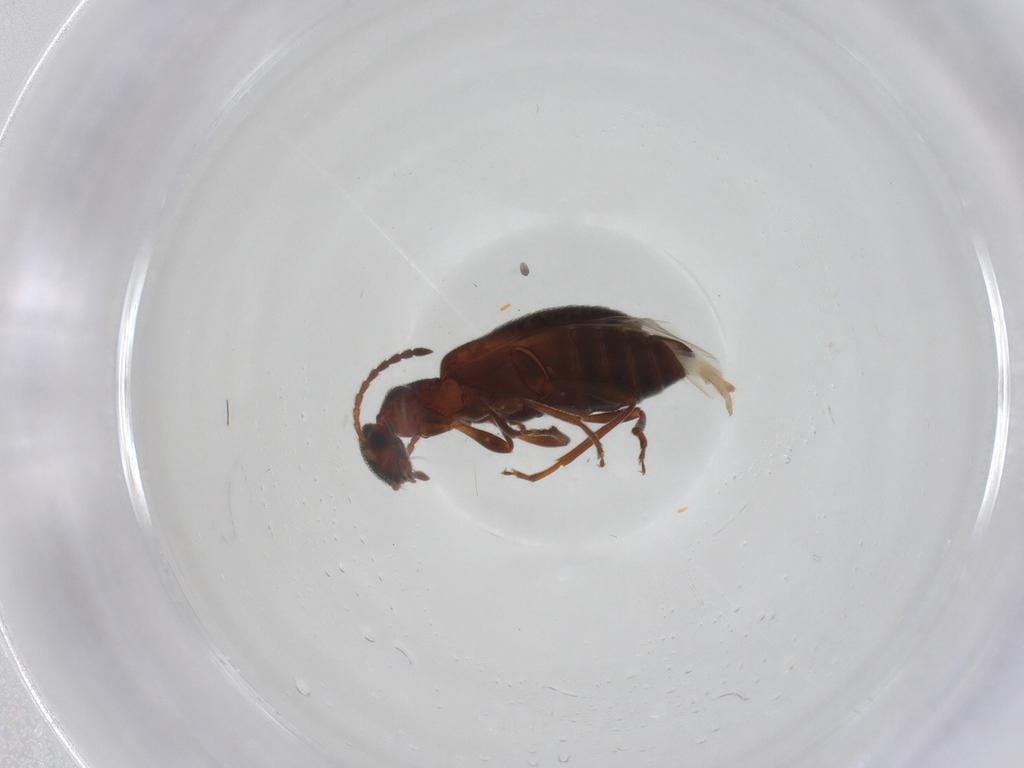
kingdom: Animalia
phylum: Arthropoda
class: Insecta
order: Coleoptera
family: Anthicidae
